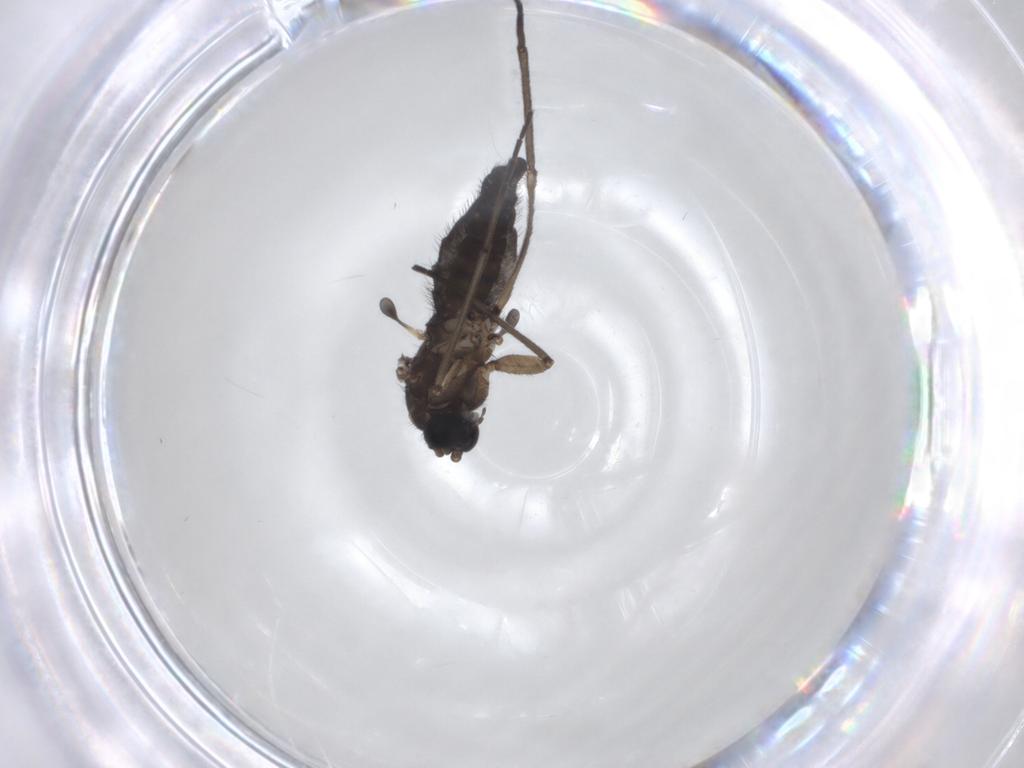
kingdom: Animalia
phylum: Arthropoda
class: Insecta
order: Diptera
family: Sciaridae
